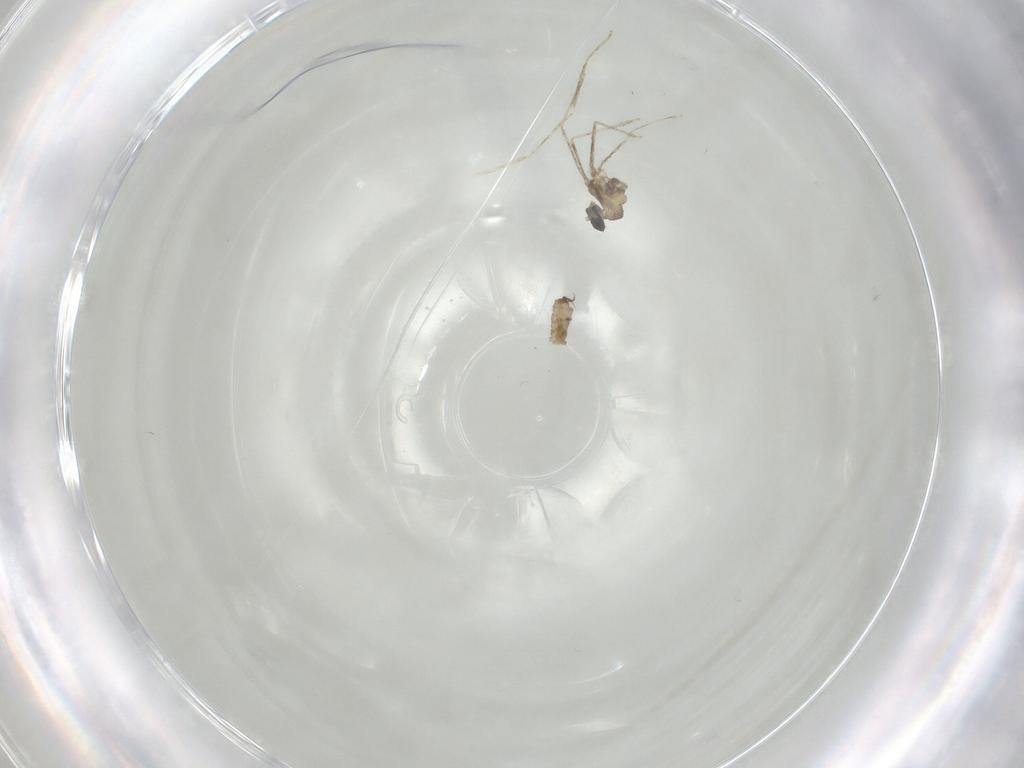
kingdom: Animalia
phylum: Arthropoda
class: Insecta
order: Diptera
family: Cecidomyiidae
